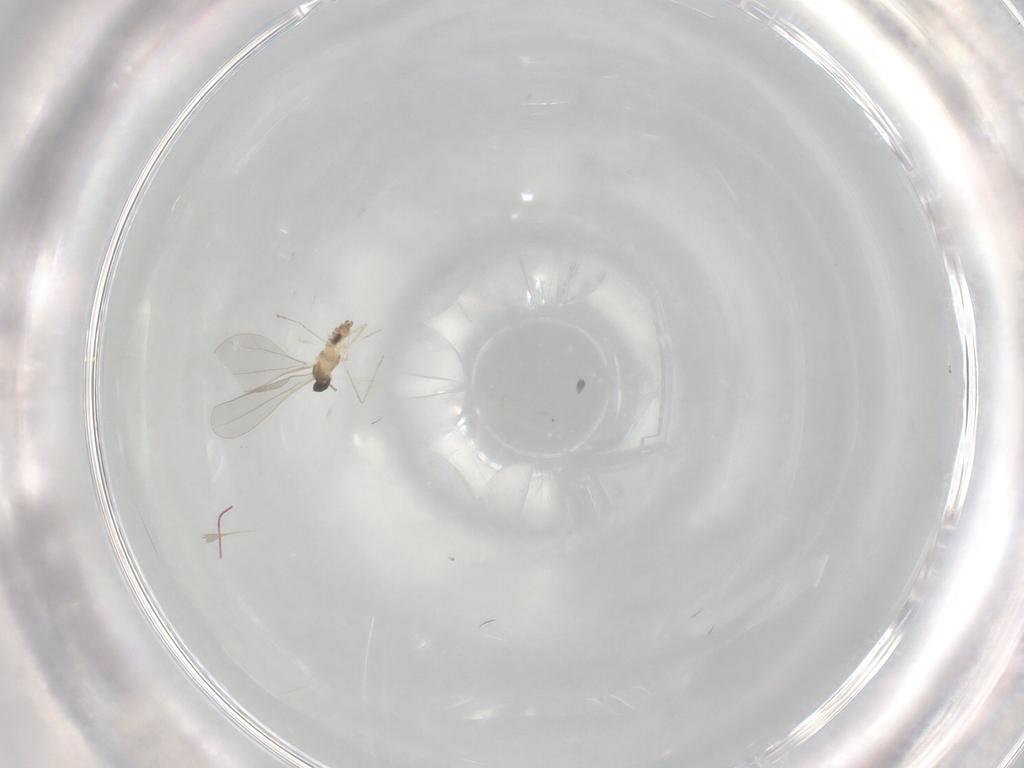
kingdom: Animalia
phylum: Arthropoda
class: Insecta
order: Diptera
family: Cecidomyiidae
